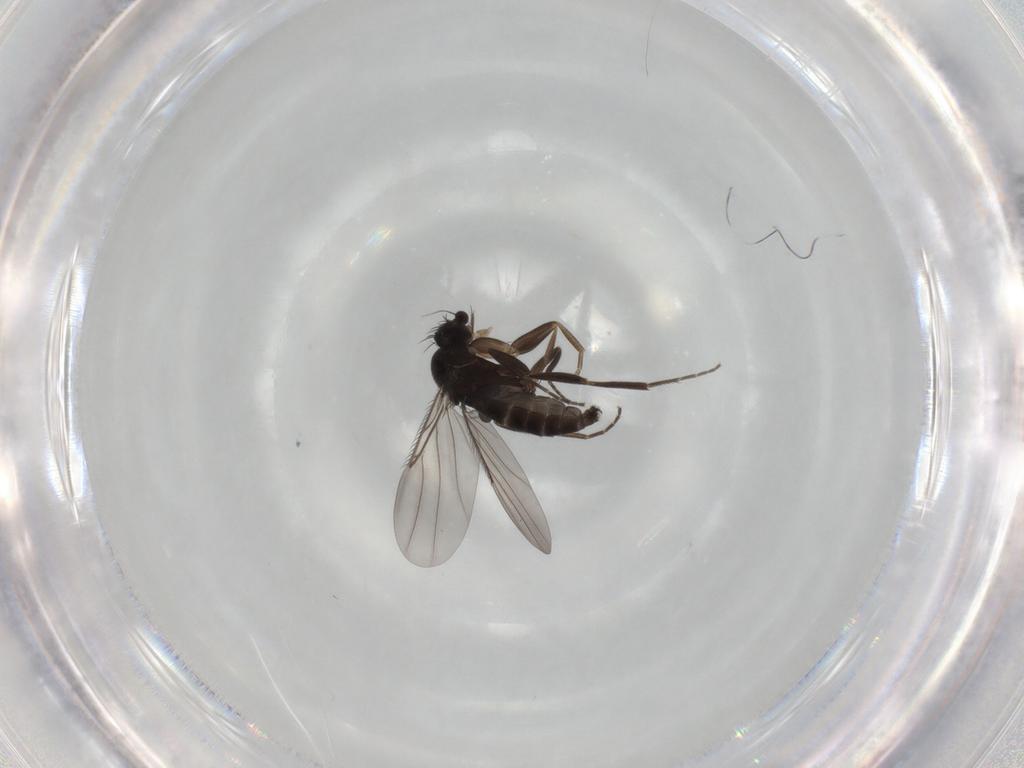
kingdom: Animalia
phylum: Arthropoda
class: Insecta
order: Diptera
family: Phoridae
